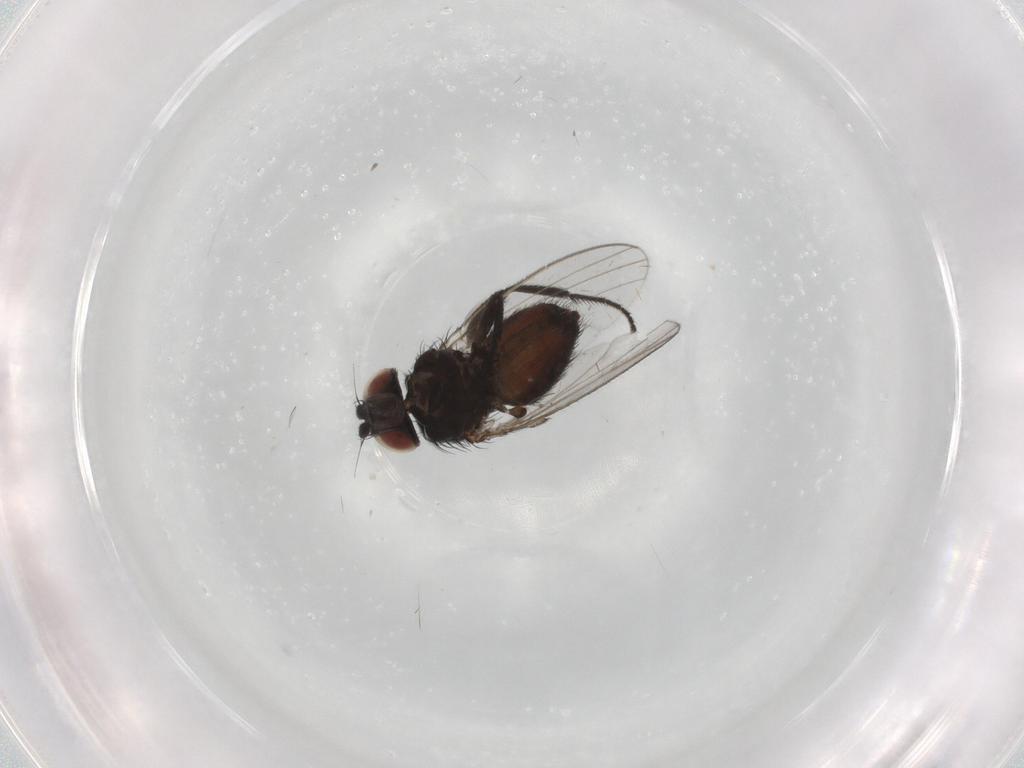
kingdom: Animalia
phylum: Arthropoda
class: Insecta
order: Diptera
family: Milichiidae
